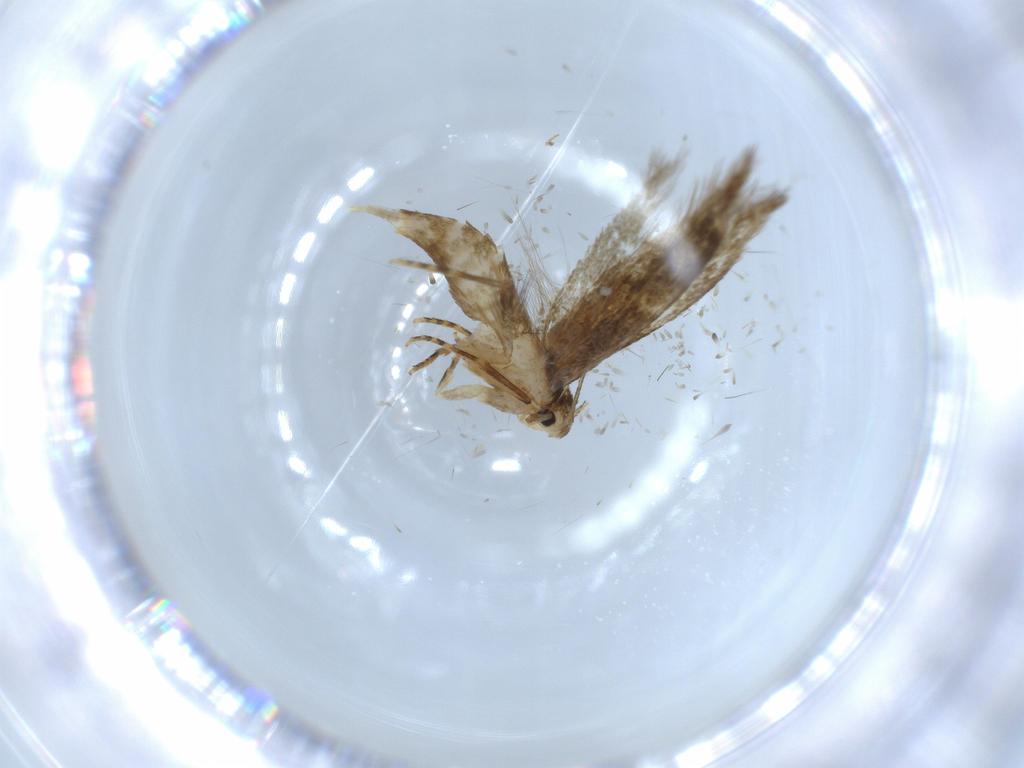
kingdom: Animalia
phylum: Arthropoda
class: Insecta
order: Lepidoptera
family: Tineidae
